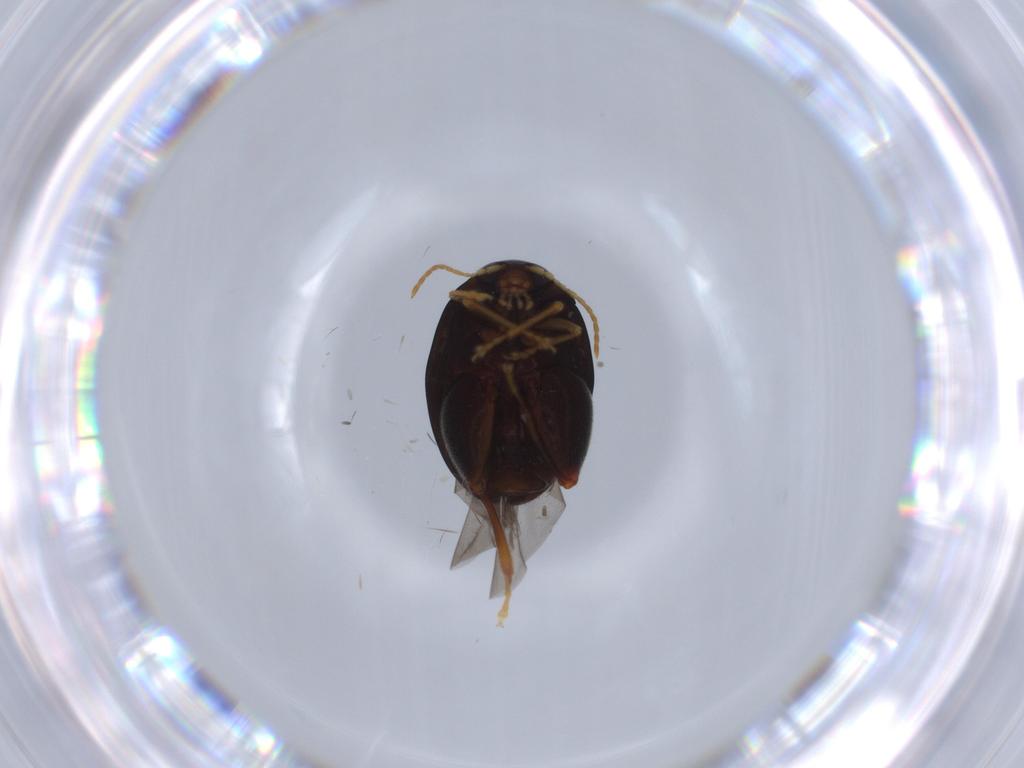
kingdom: Animalia
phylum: Arthropoda
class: Insecta
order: Coleoptera
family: Chrysomelidae
